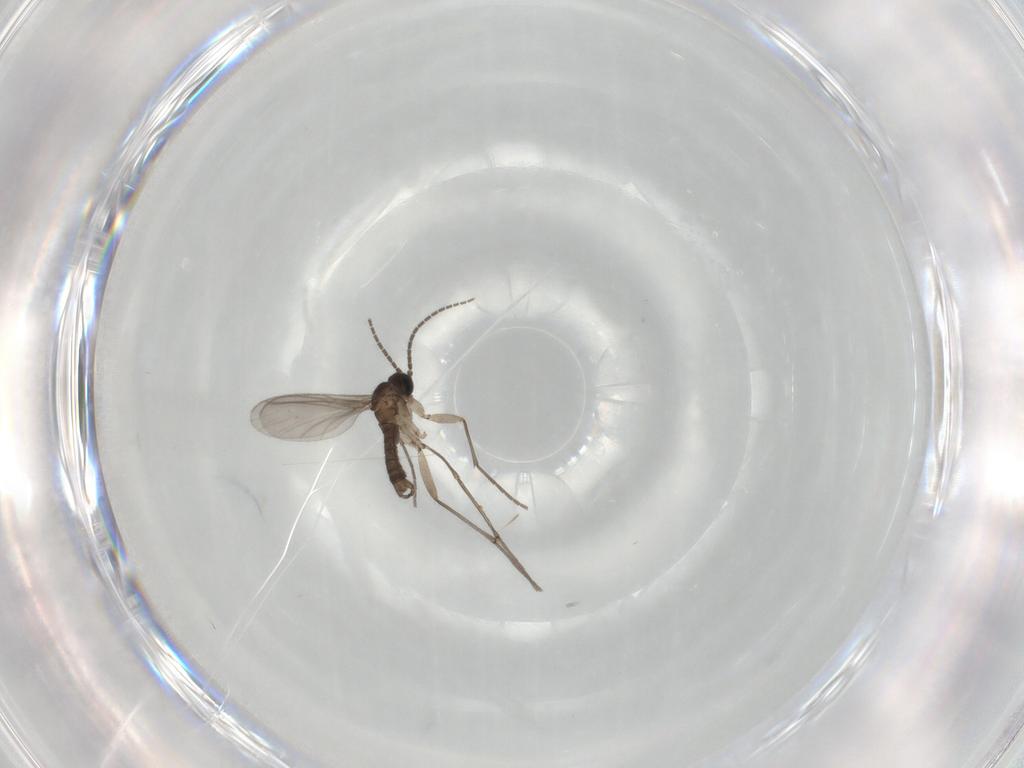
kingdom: Animalia
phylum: Arthropoda
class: Insecta
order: Diptera
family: Sciaridae
